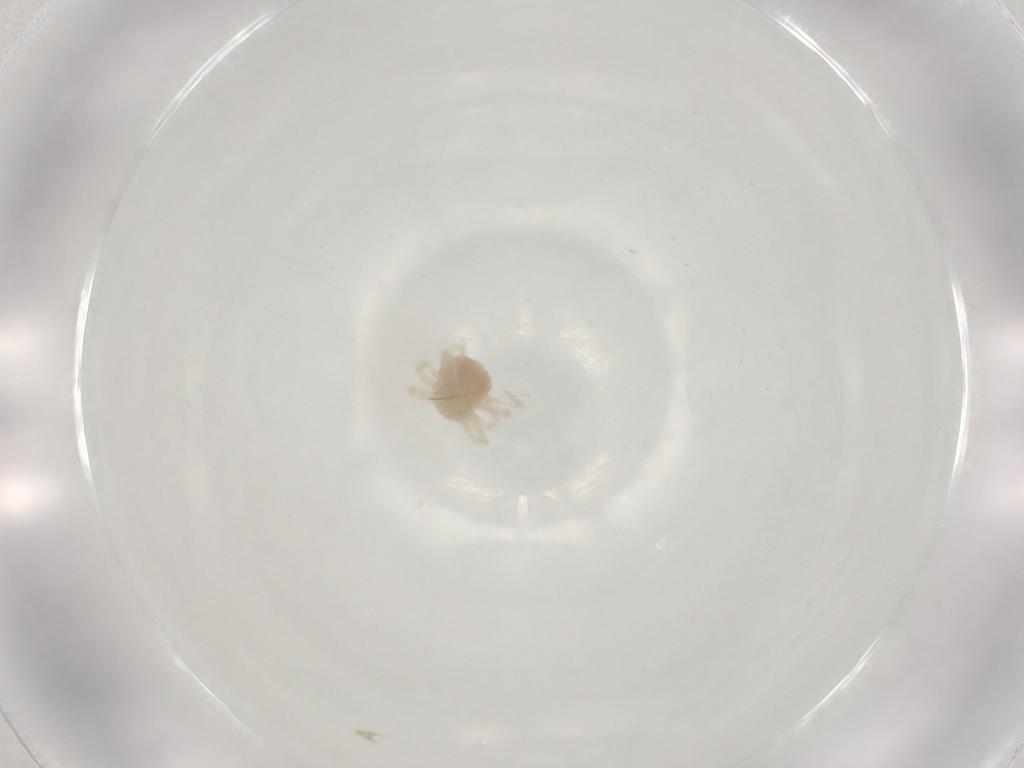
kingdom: Animalia
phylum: Arthropoda
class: Arachnida
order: Trombidiformes
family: Anystidae
